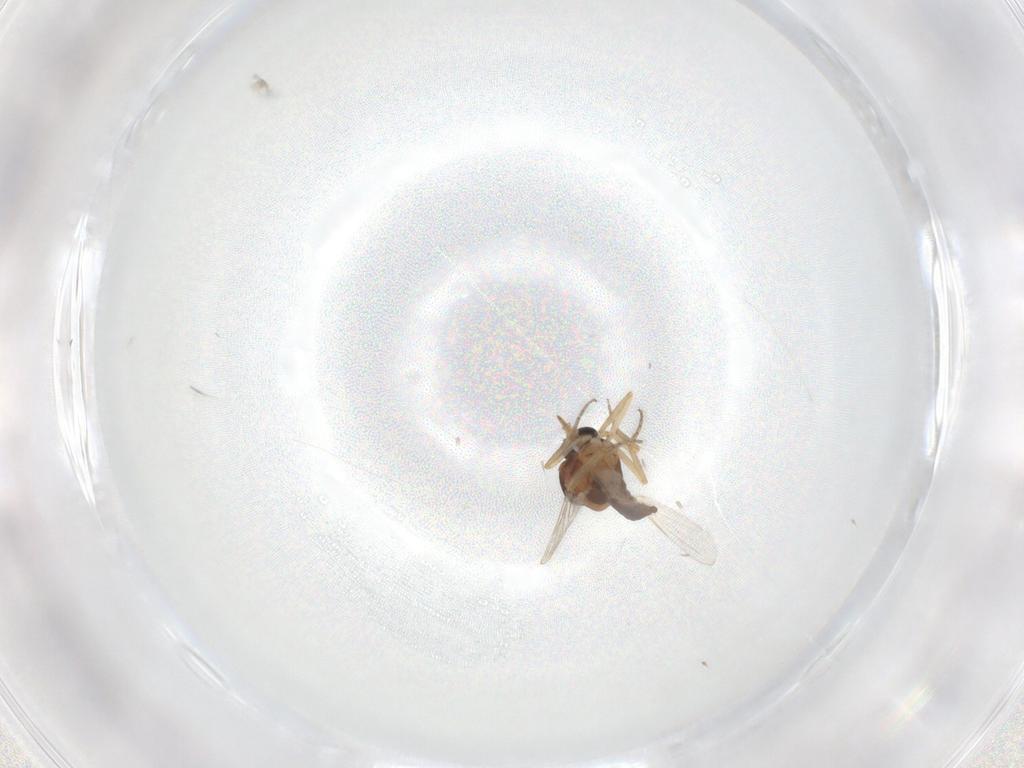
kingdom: Animalia
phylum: Arthropoda
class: Insecta
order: Diptera
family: Ceratopogonidae
